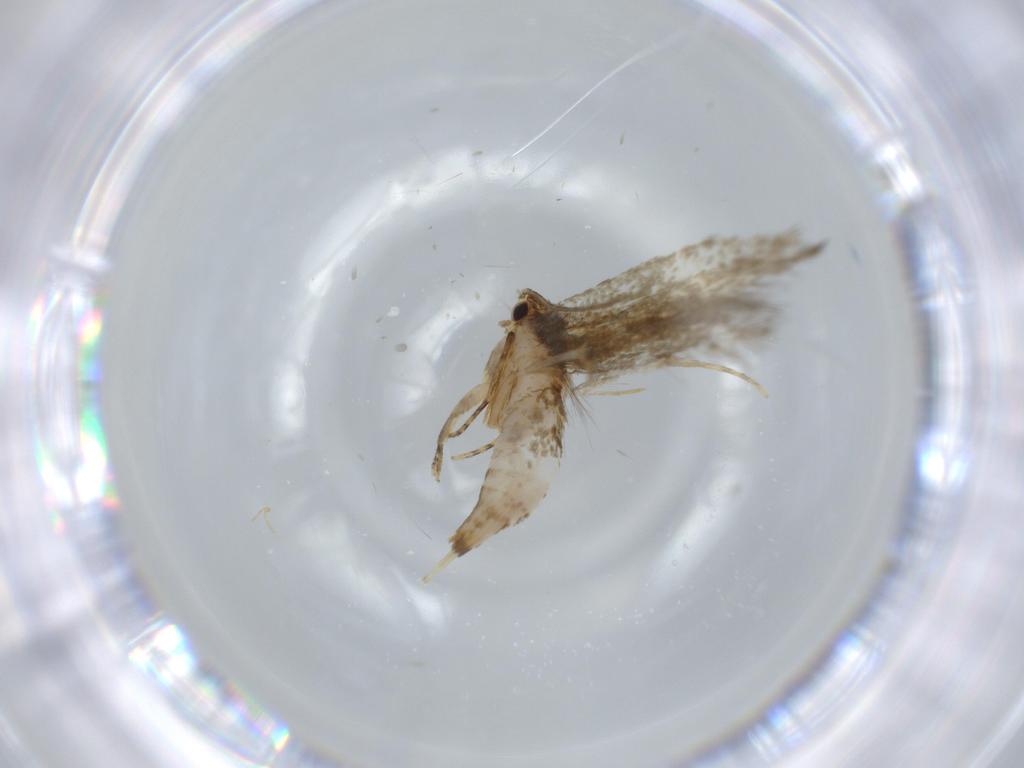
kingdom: Animalia
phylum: Arthropoda
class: Insecta
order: Lepidoptera
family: Tineidae
